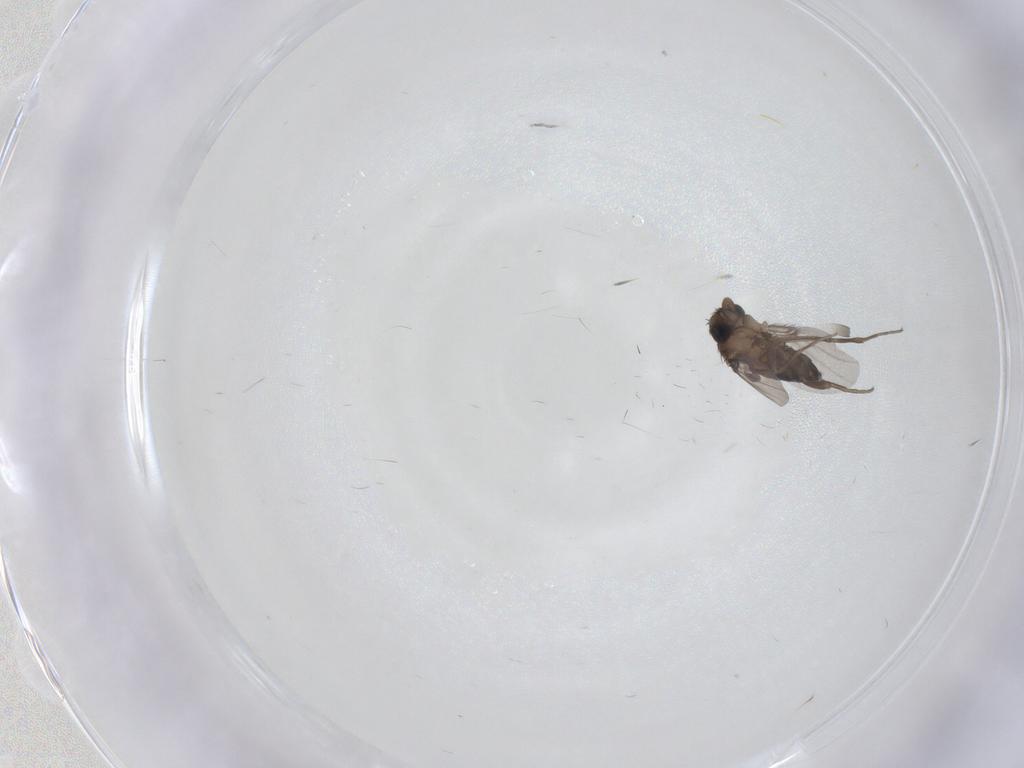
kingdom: Animalia
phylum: Arthropoda
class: Insecta
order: Diptera
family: Phoridae
